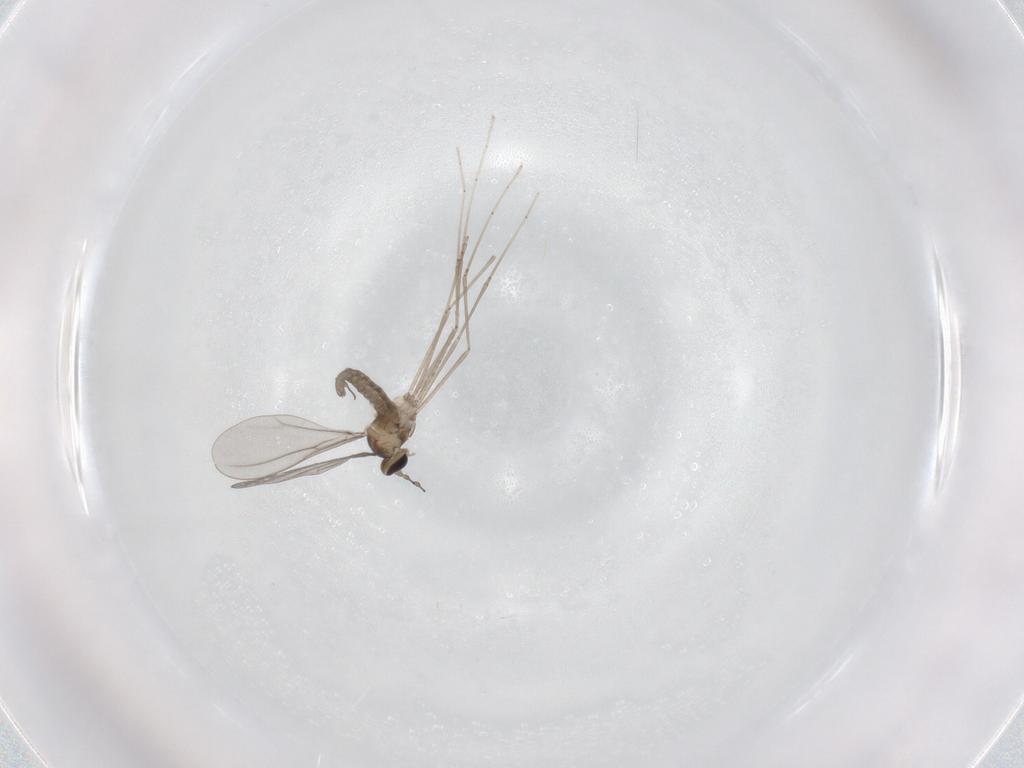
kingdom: Animalia
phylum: Arthropoda
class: Insecta
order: Diptera
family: Cecidomyiidae
